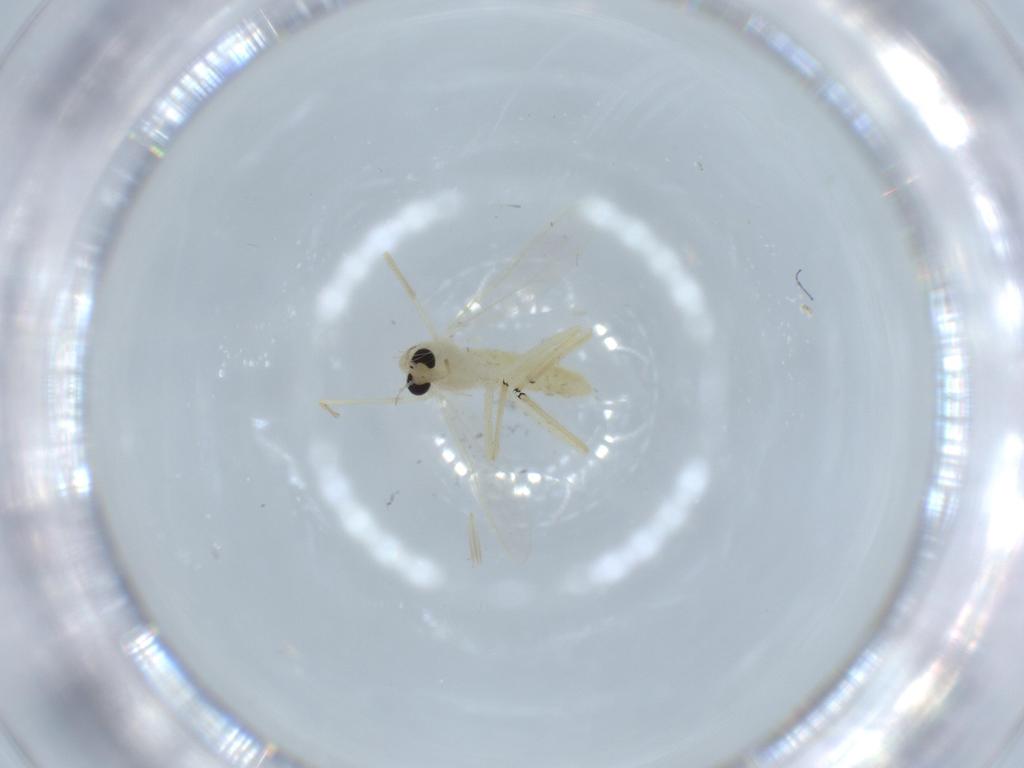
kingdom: Animalia
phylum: Arthropoda
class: Insecta
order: Diptera
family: Chironomidae
